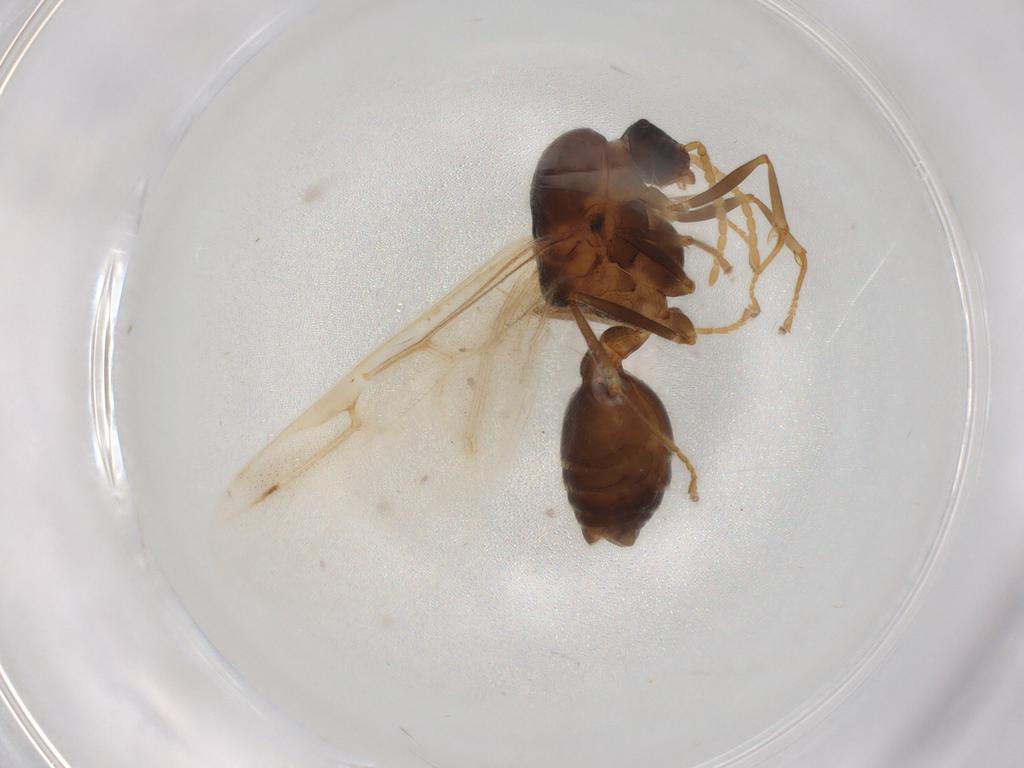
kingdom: Animalia
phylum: Arthropoda
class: Insecta
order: Hymenoptera
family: Formicidae
